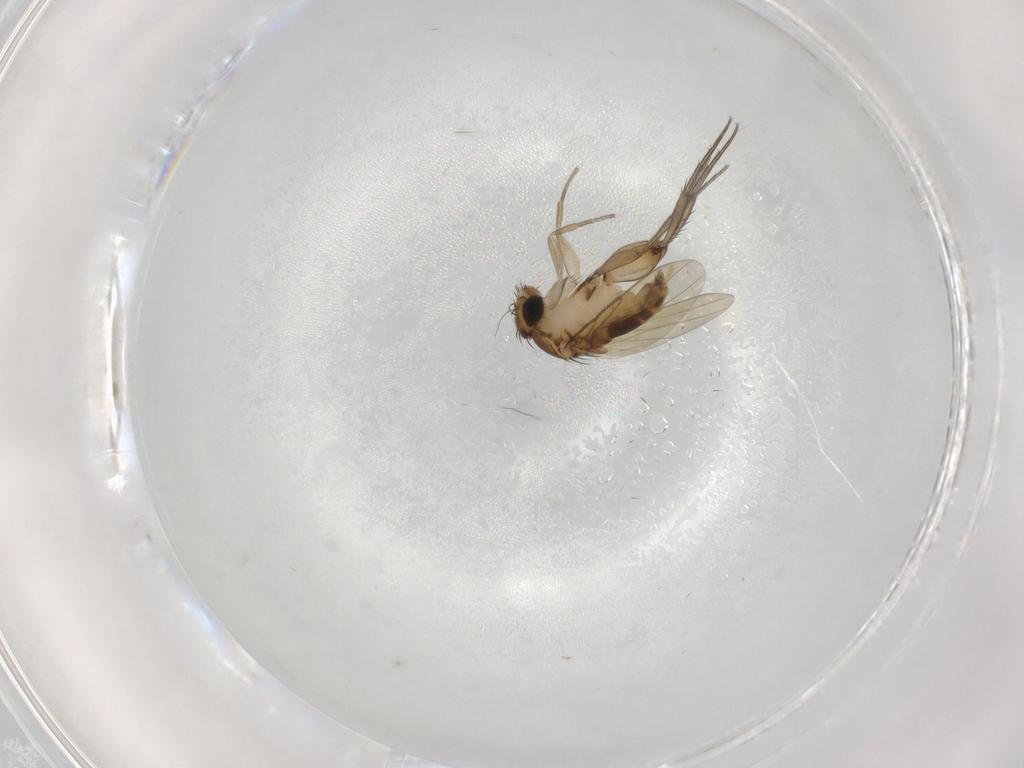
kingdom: Animalia
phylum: Arthropoda
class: Insecta
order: Diptera
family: Phoridae
